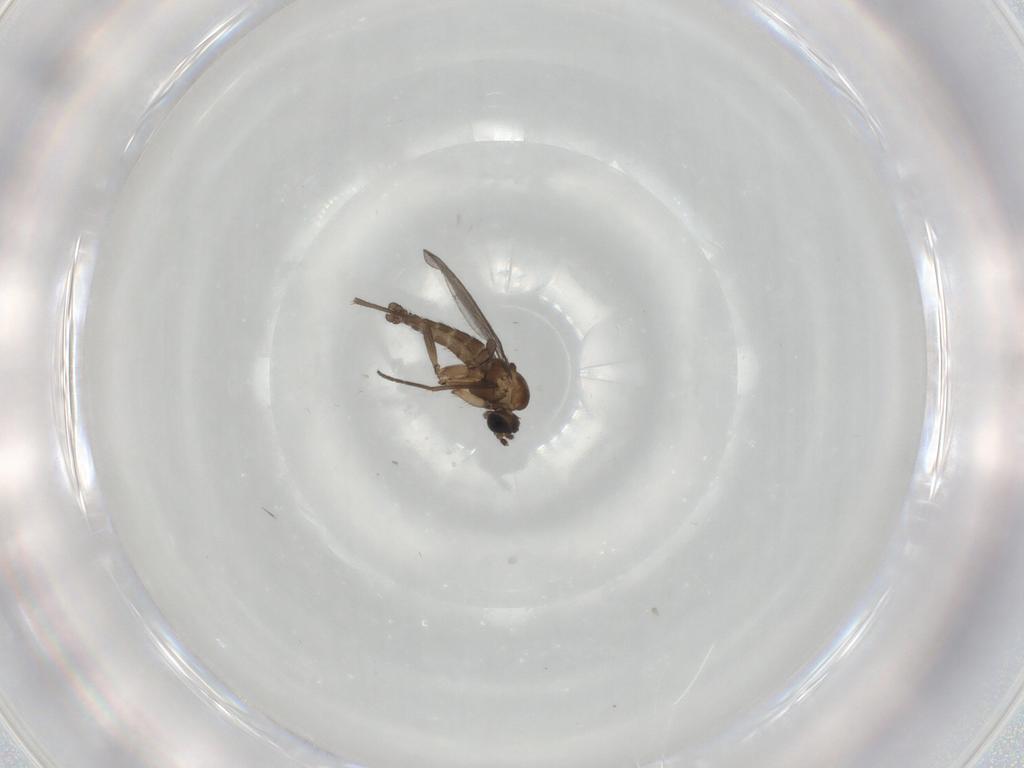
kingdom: Animalia
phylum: Arthropoda
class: Insecta
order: Diptera
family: Sciaridae
